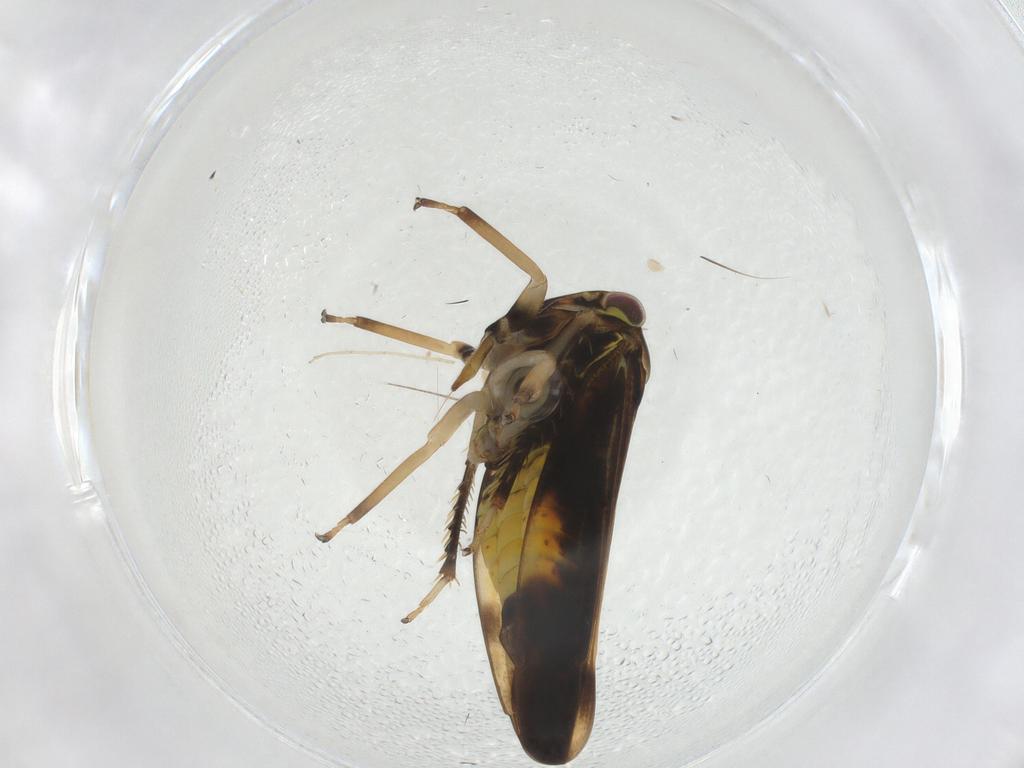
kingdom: Animalia
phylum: Arthropoda
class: Insecta
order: Hemiptera
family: Cicadellidae
